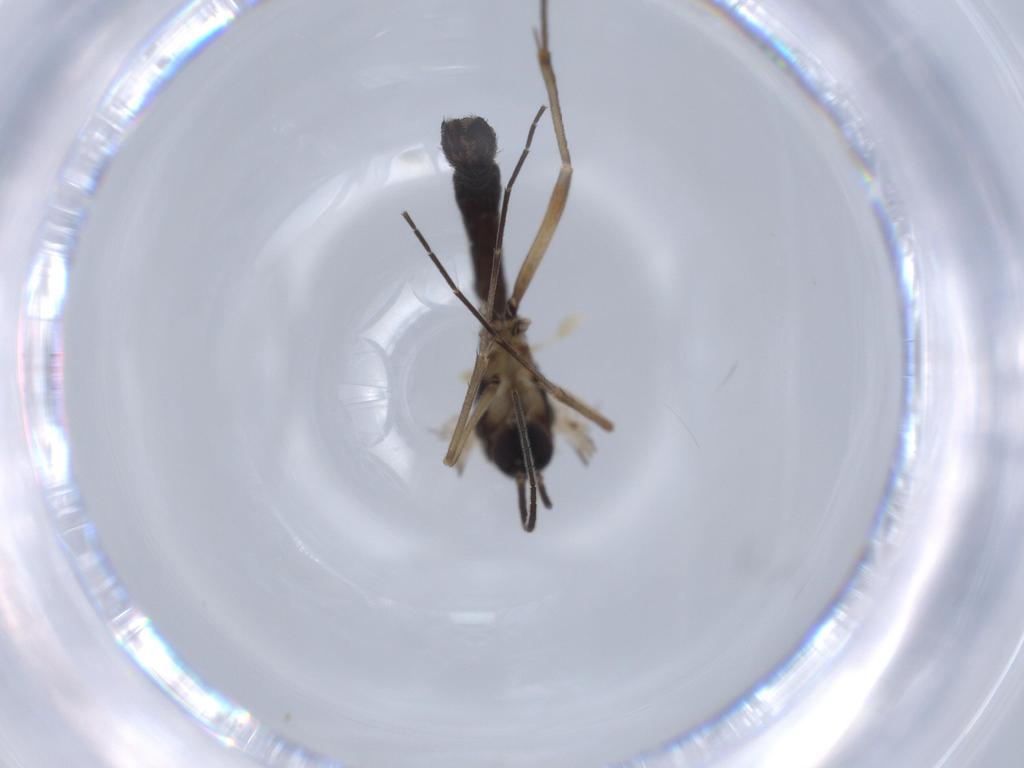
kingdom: Animalia
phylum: Arthropoda
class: Insecta
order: Diptera
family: Phoridae
